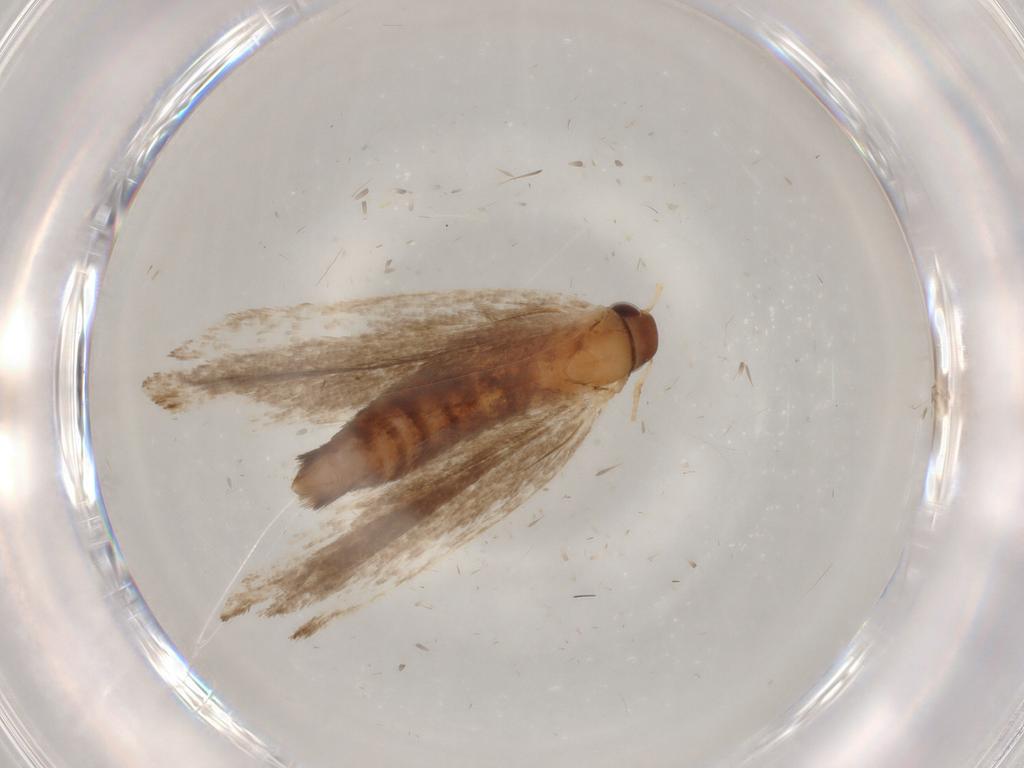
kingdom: Animalia
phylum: Arthropoda
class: Insecta
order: Lepidoptera
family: Gelechiidae
